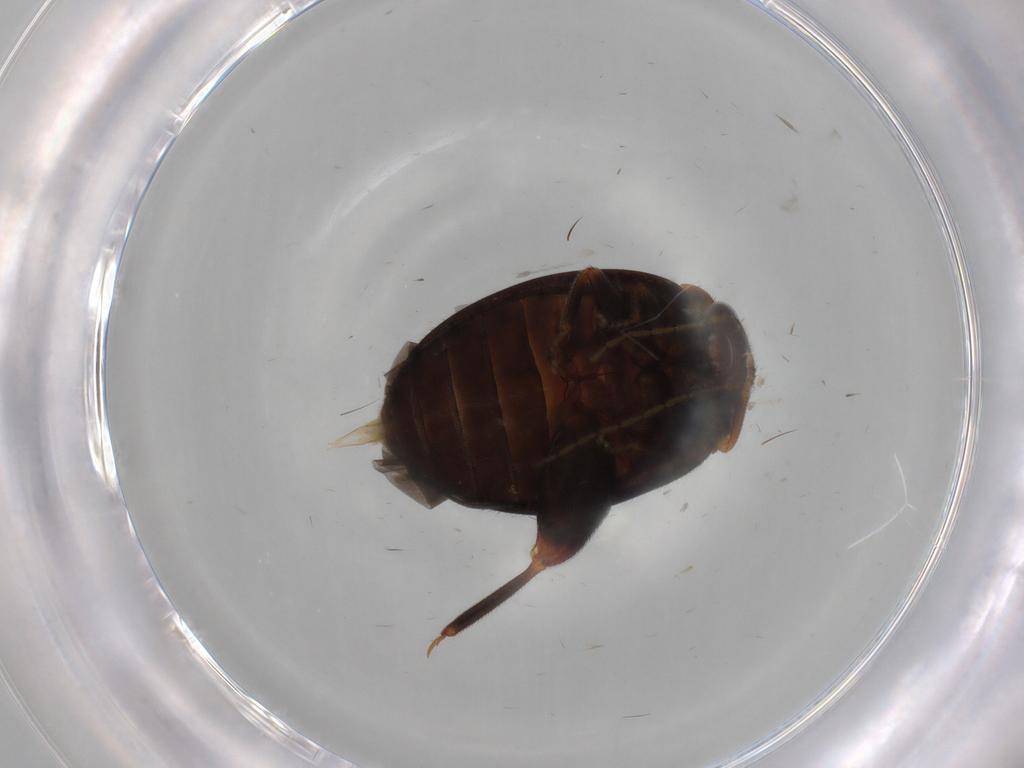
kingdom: Animalia
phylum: Arthropoda
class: Insecta
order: Coleoptera
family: Scirtidae
